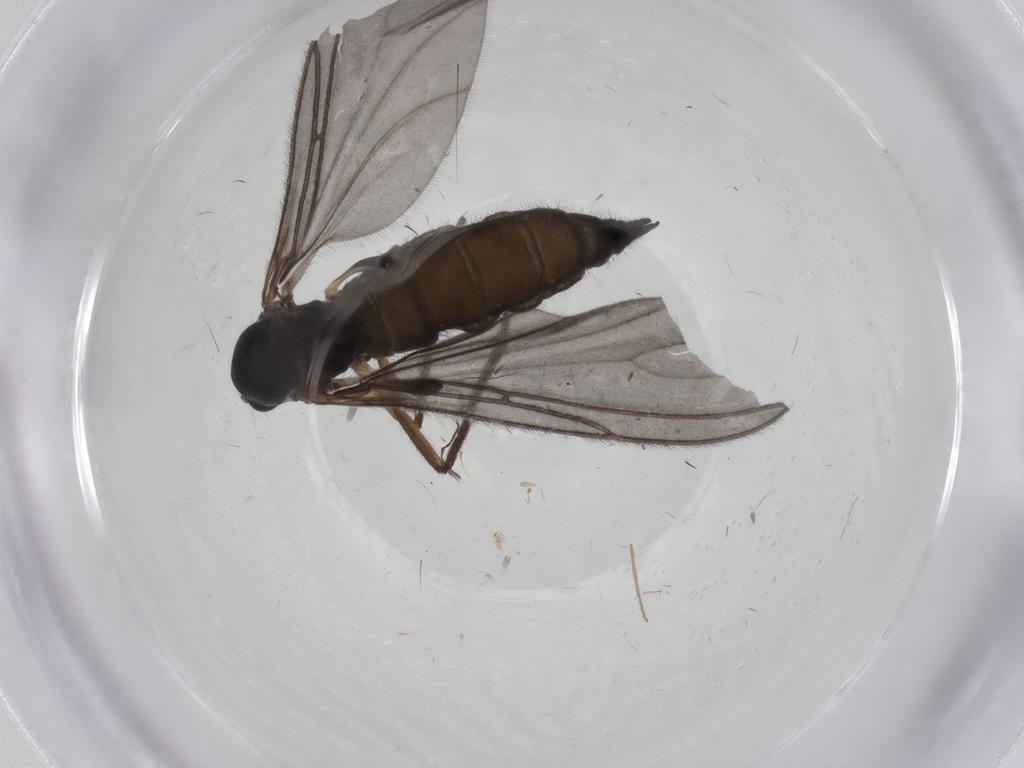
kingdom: Animalia
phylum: Arthropoda
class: Insecta
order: Diptera
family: Sciaridae
